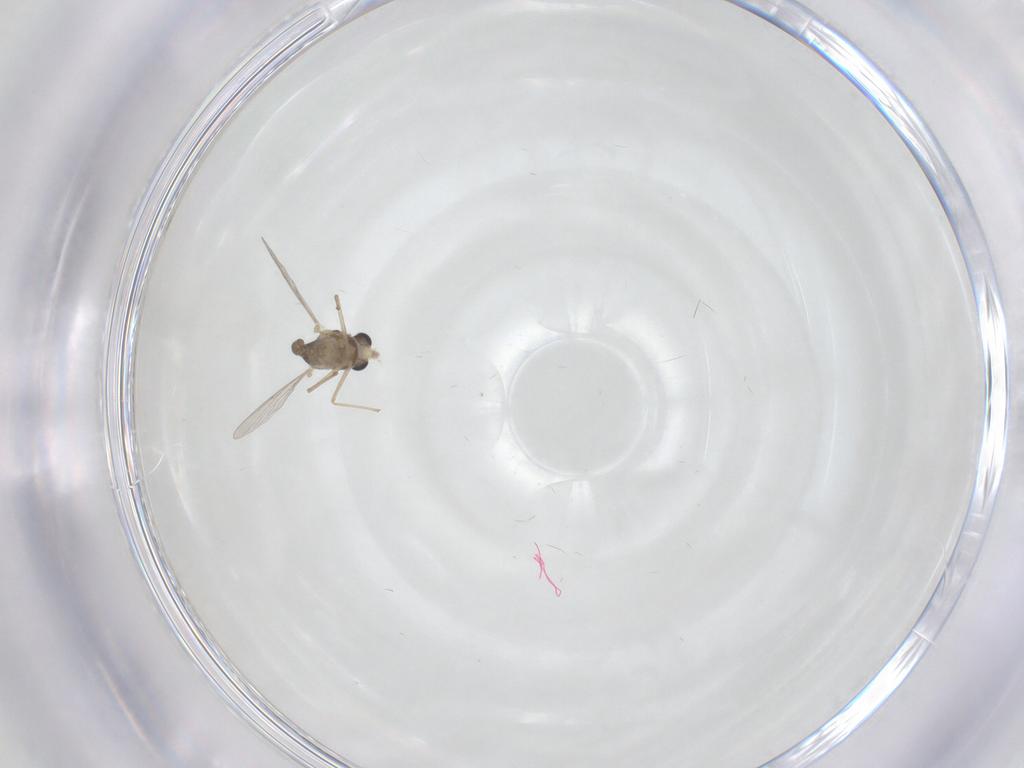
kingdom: Animalia
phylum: Arthropoda
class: Insecta
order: Diptera
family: Chironomidae
